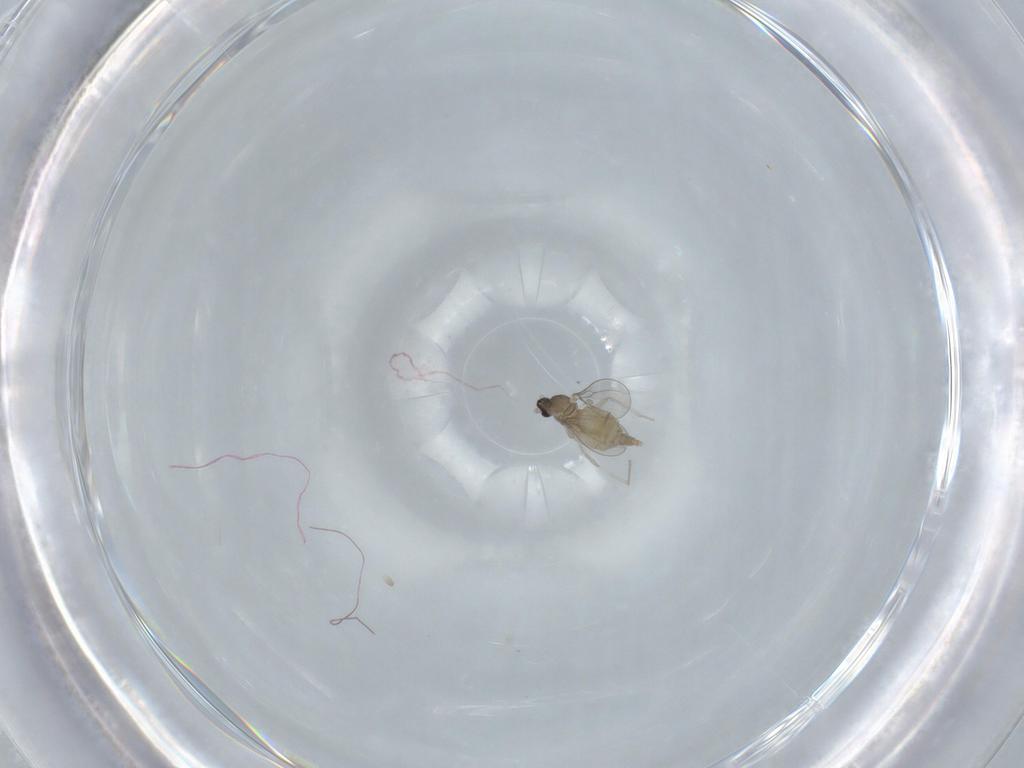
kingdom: Animalia
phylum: Arthropoda
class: Insecta
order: Diptera
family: Cecidomyiidae
